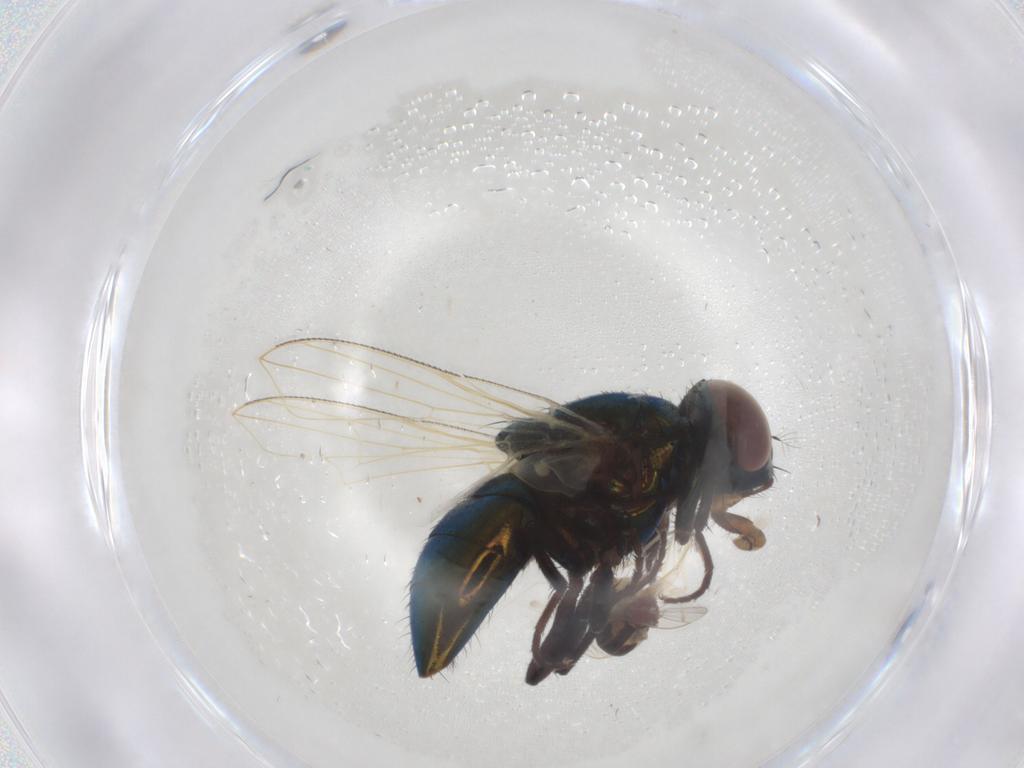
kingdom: Animalia
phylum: Arthropoda
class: Insecta
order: Diptera
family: Muscidae
